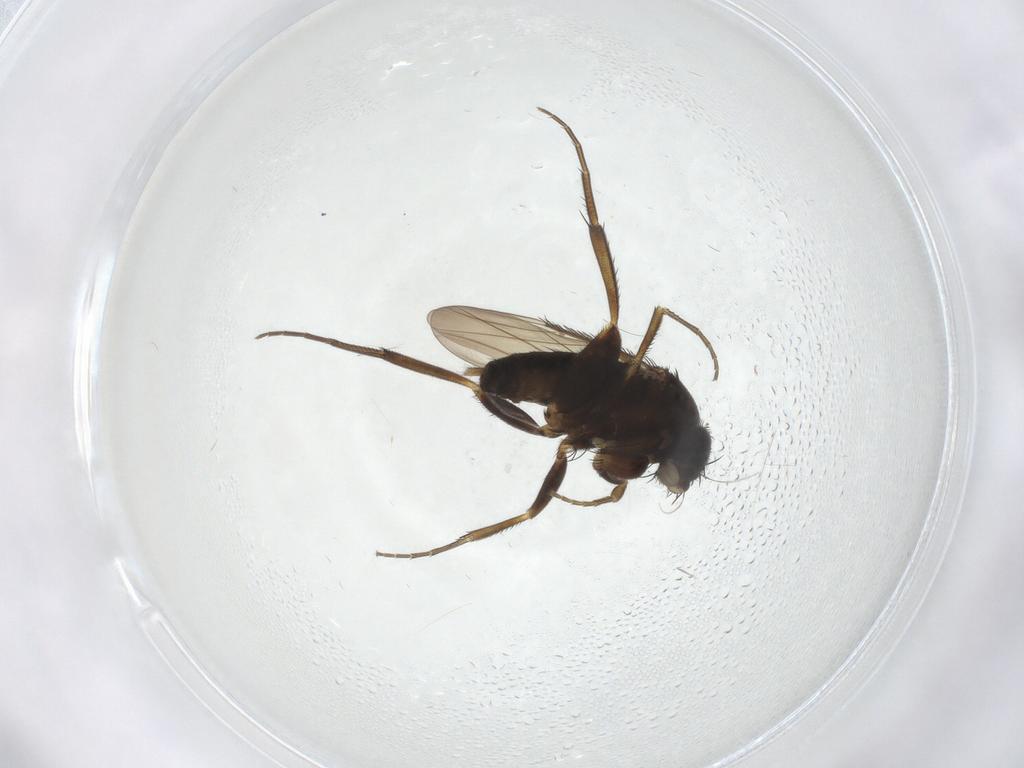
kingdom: Animalia
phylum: Arthropoda
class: Insecta
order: Diptera
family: Phoridae
